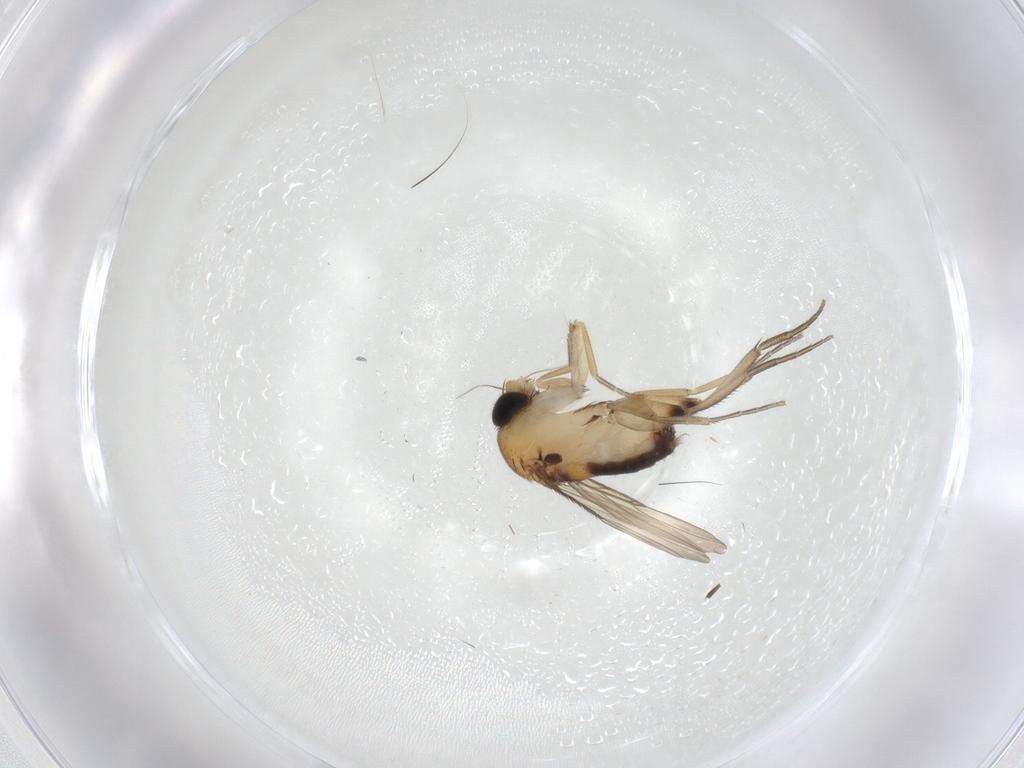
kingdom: Animalia
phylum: Arthropoda
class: Insecta
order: Diptera
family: Phoridae
